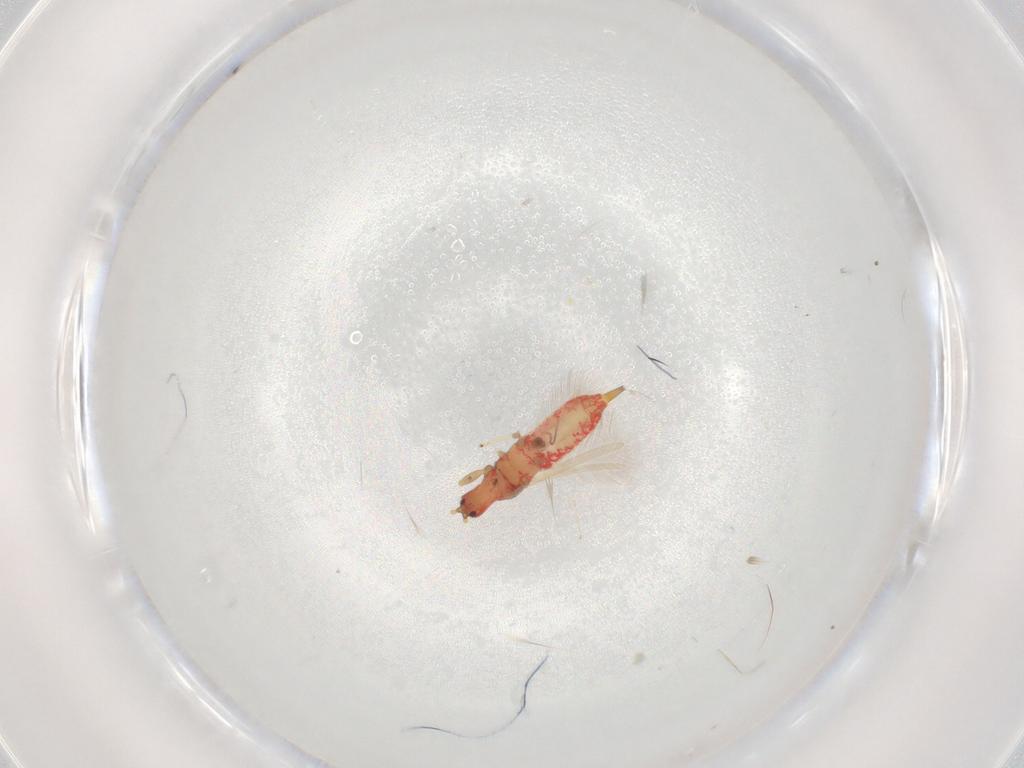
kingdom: Animalia
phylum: Arthropoda
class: Insecta
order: Thysanoptera
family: Phlaeothripidae
